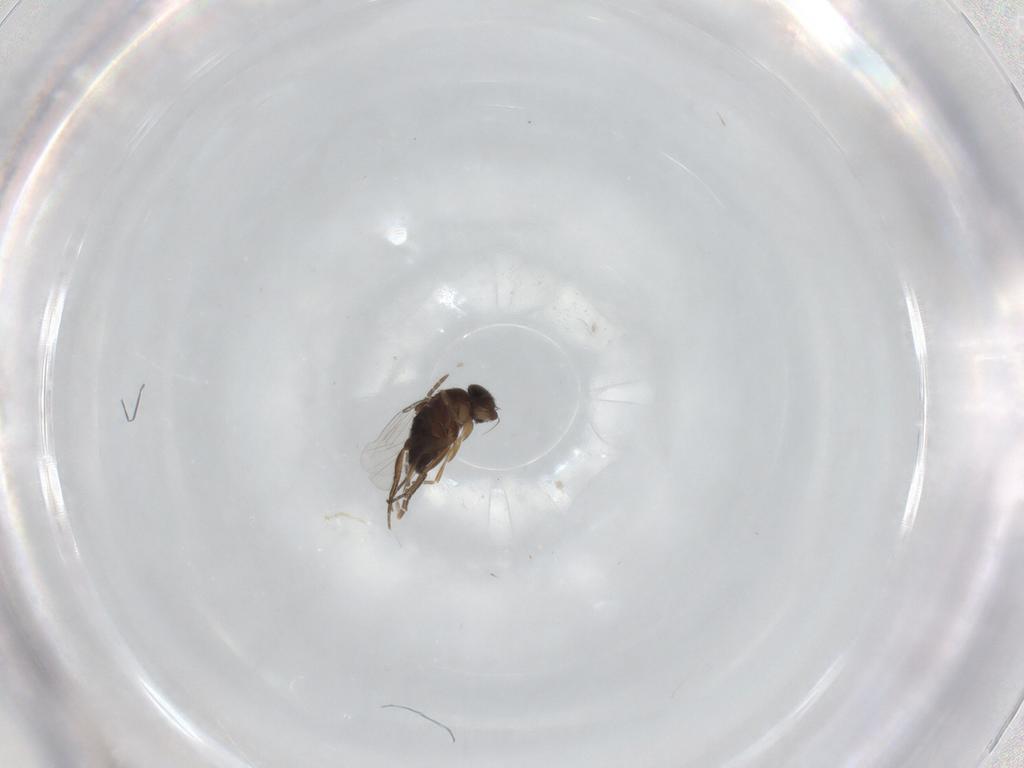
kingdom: Animalia
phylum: Arthropoda
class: Insecta
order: Diptera
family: Phoridae
